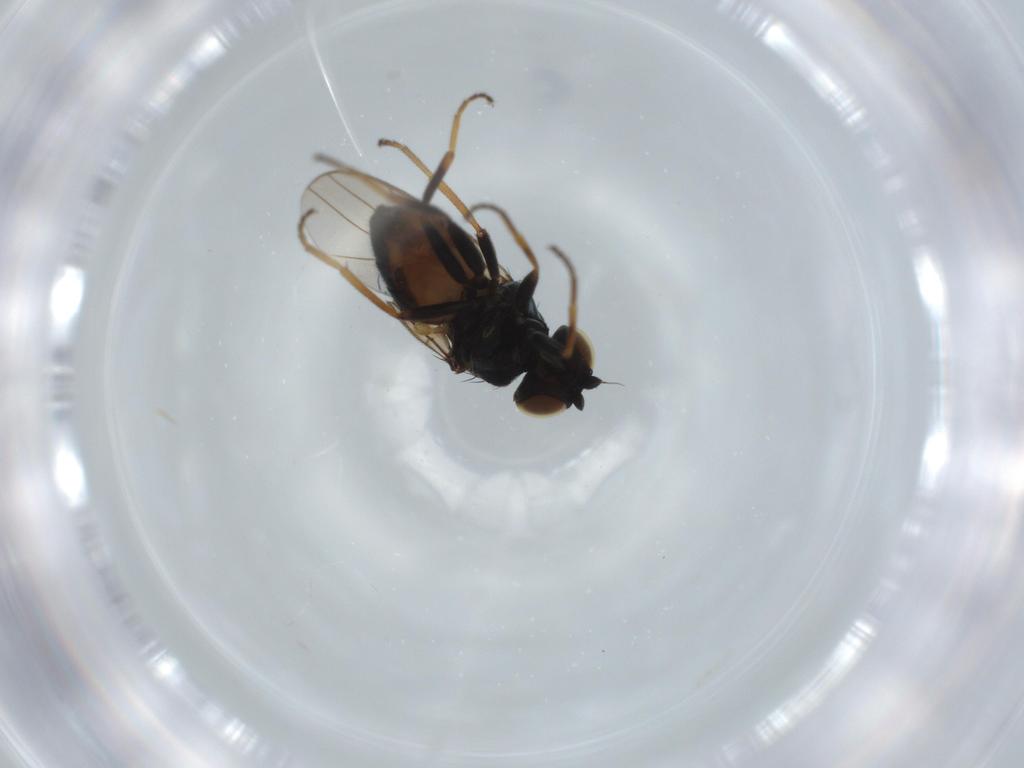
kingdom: Animalia
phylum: Arthropoda
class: Insecta
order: Diptera
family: Chloropidae
